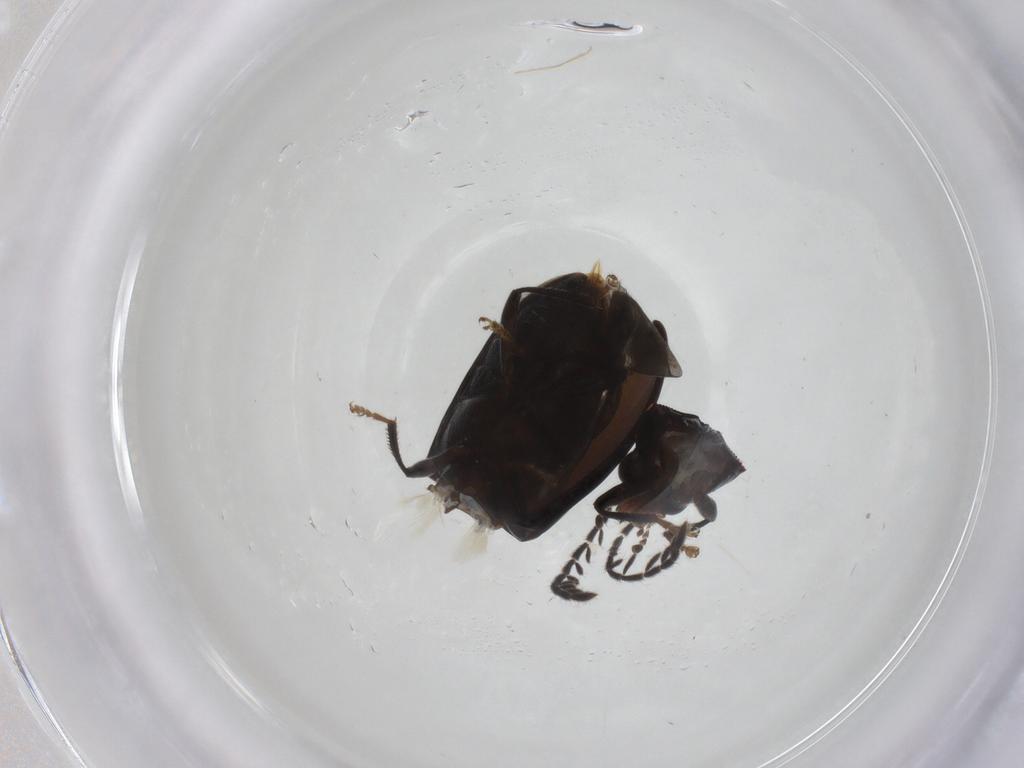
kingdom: Animalia
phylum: Arthropoda
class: Insecta
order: Coleoptera
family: Ptilodactylidae
